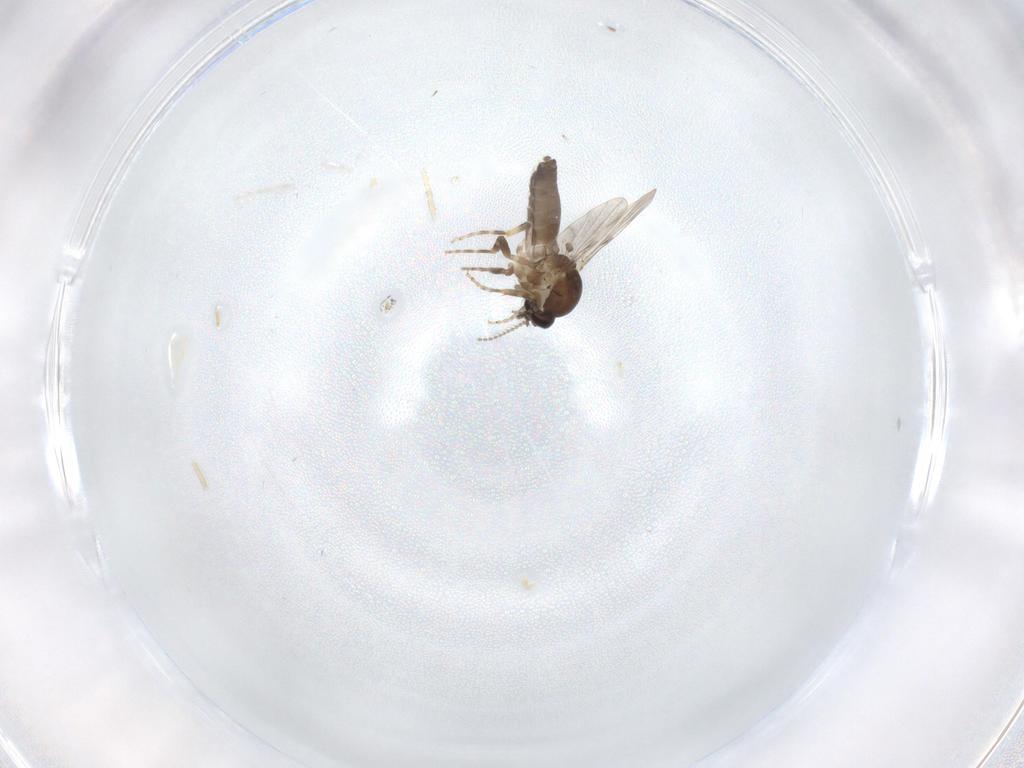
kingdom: Animalia
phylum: Arthropoda
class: Insecta
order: Diptera
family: Ceratopogonidae
